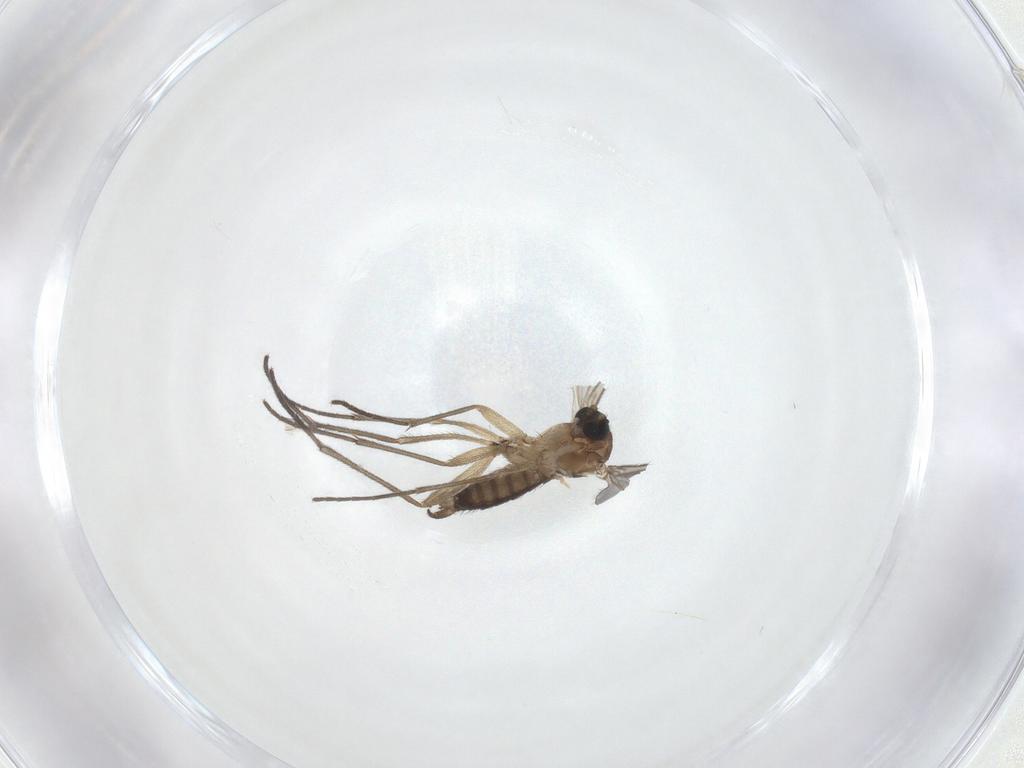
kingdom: Animalia
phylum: Arthropoda
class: Insecta
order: Diptera
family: Sciaridae
